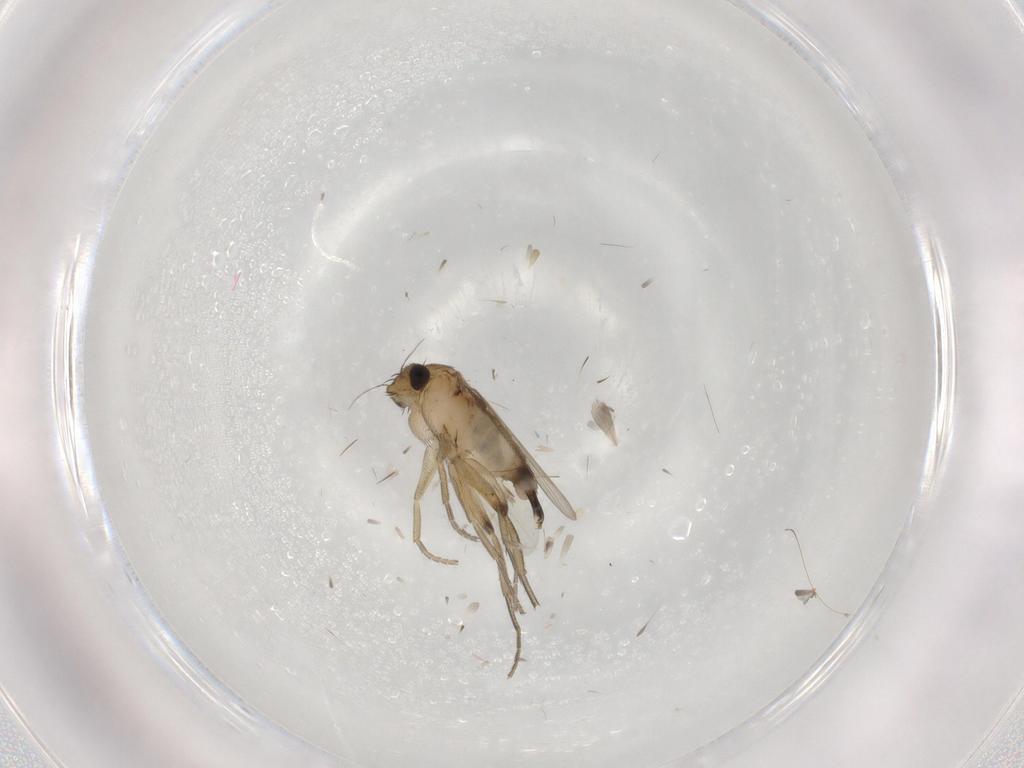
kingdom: Animalia
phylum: Arthropoda
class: Insecta
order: Diptera
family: Phoridae
